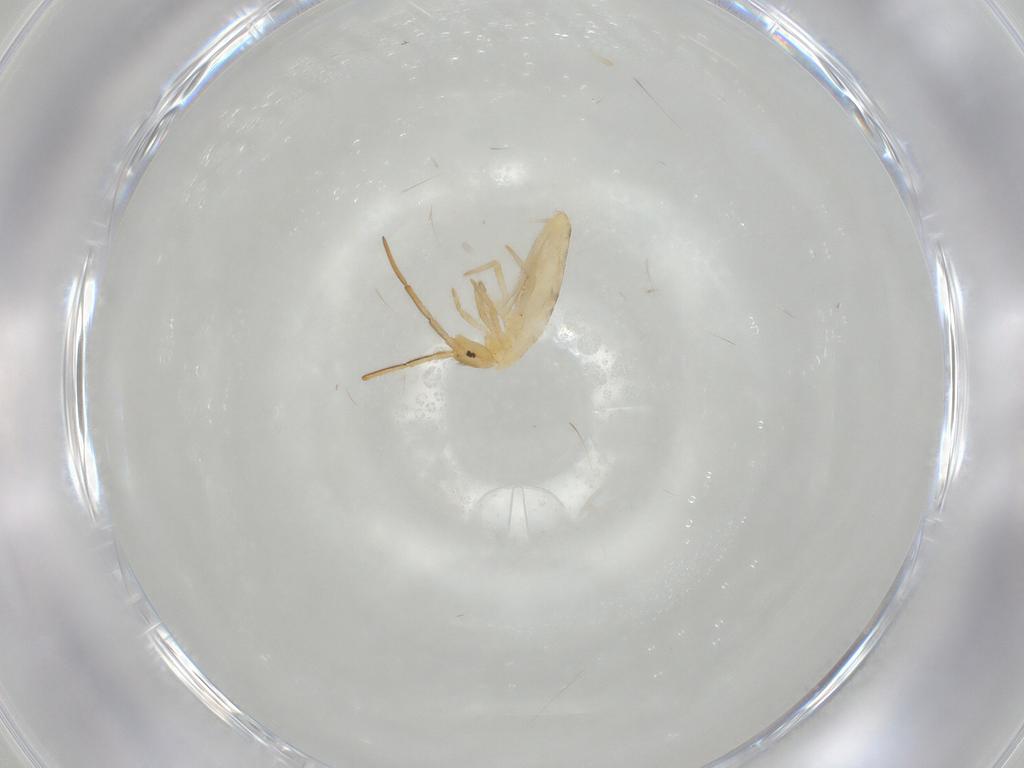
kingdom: Animalia
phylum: Arthropoda
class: Collembola
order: Entomobryomorpha
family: Entomobryidae
